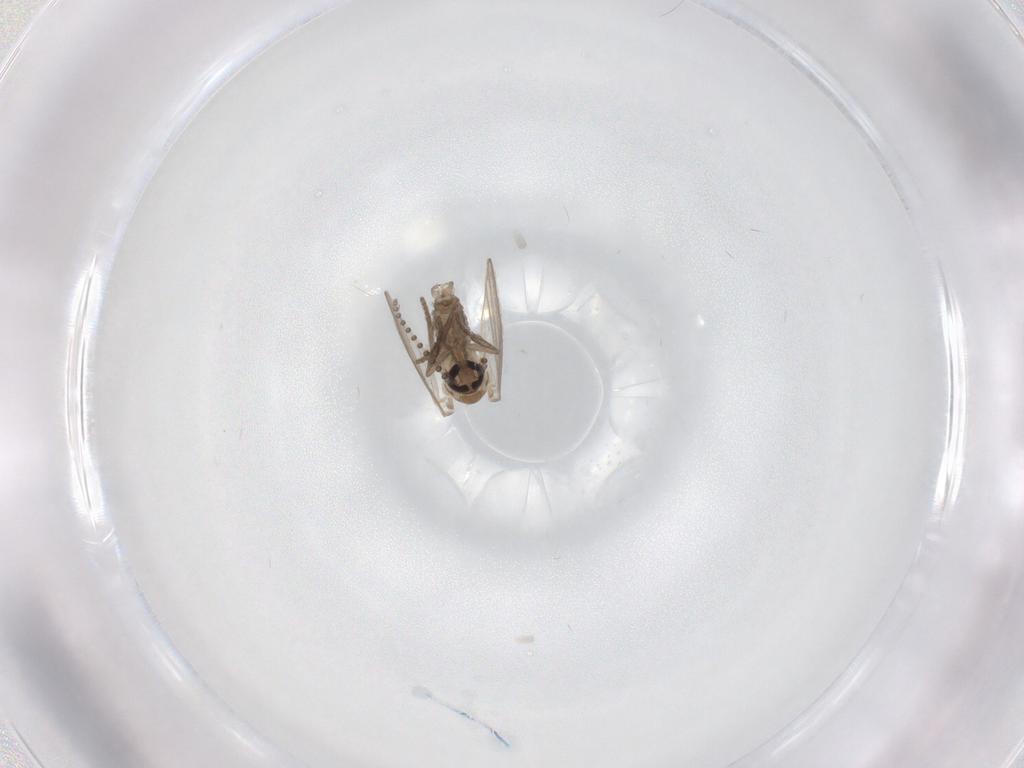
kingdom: Animalia
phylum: Arthropoda
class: Insecta
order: Diptera
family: Psychodidae
